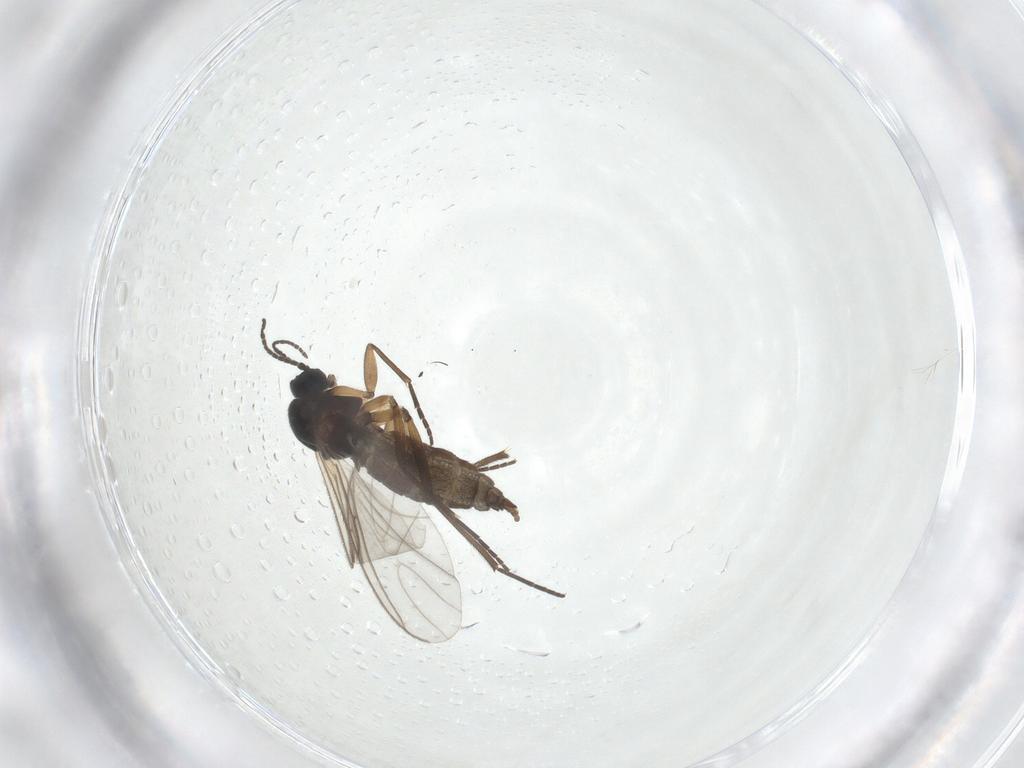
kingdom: Animalia
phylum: Arthropoda
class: Insecta
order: Diptera
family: Sciaridae
